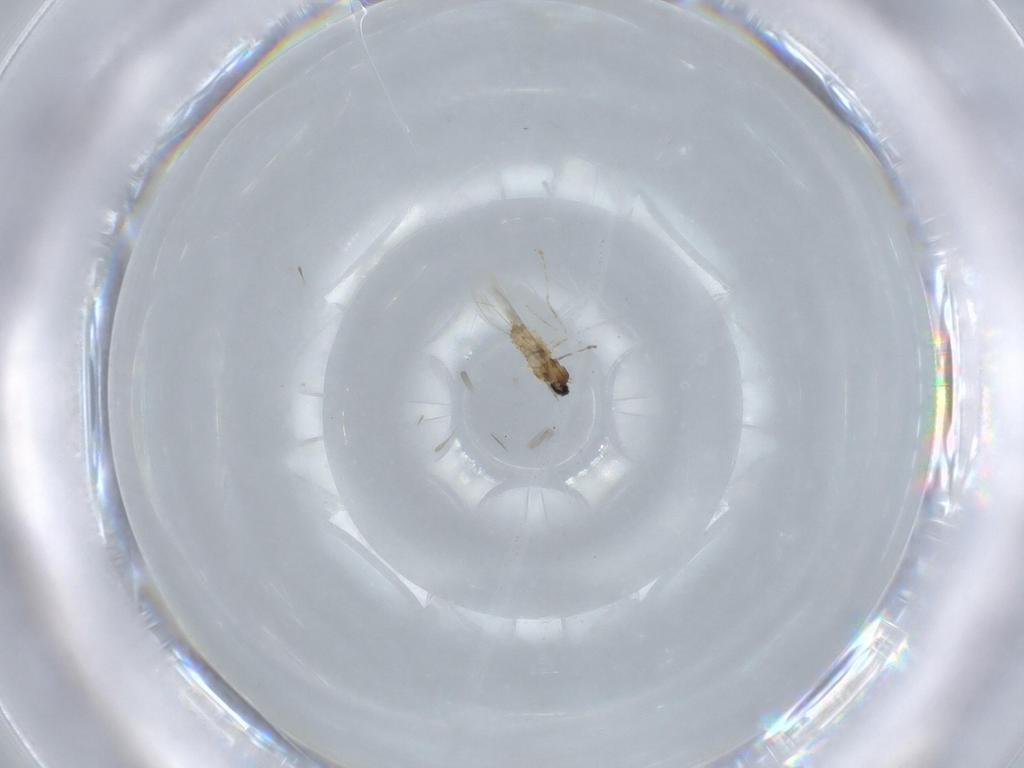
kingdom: Animalia
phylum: Arthropoda
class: Insecta
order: Diptera
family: Cecidomyiidae
